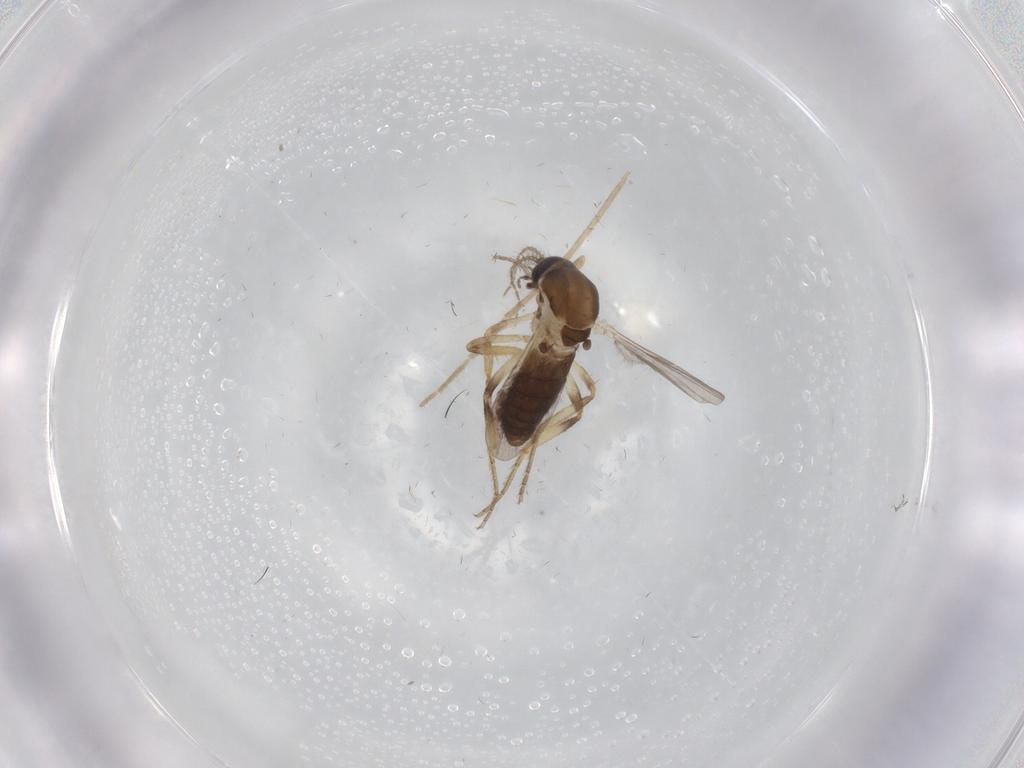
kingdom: Animalia
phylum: Arthropoda
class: Insecta
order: Diptera
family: Ceratopogonidae
